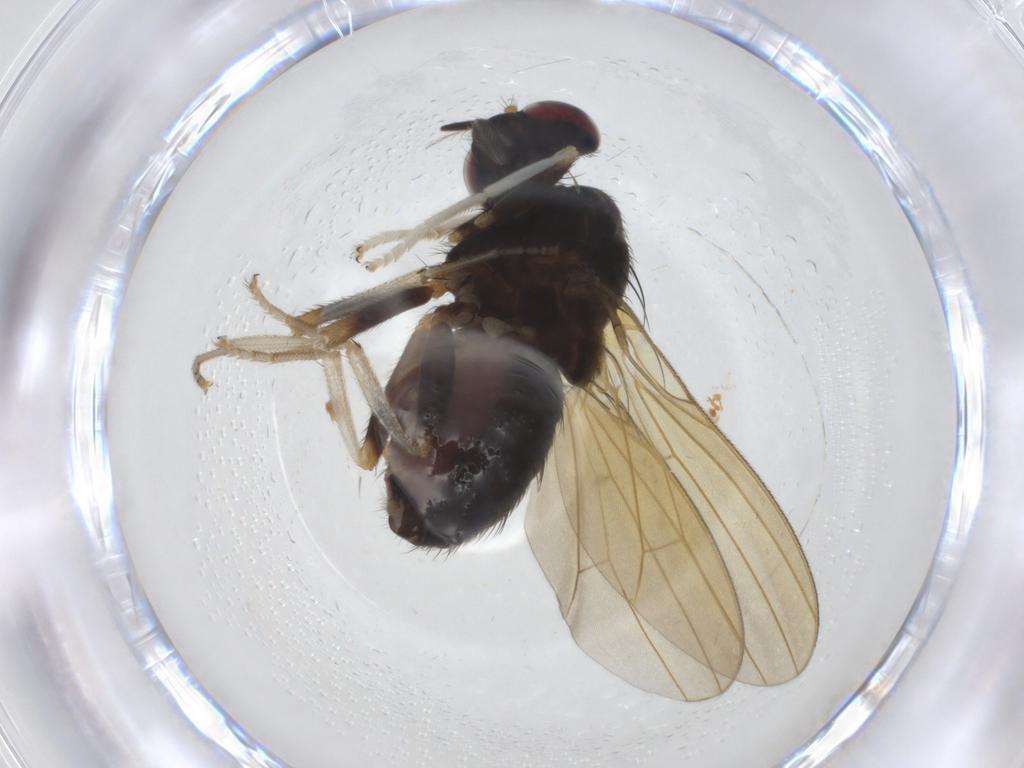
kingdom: Animalia
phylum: Arthropoda
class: Insecta
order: Diptera
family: Lauxaniidae
